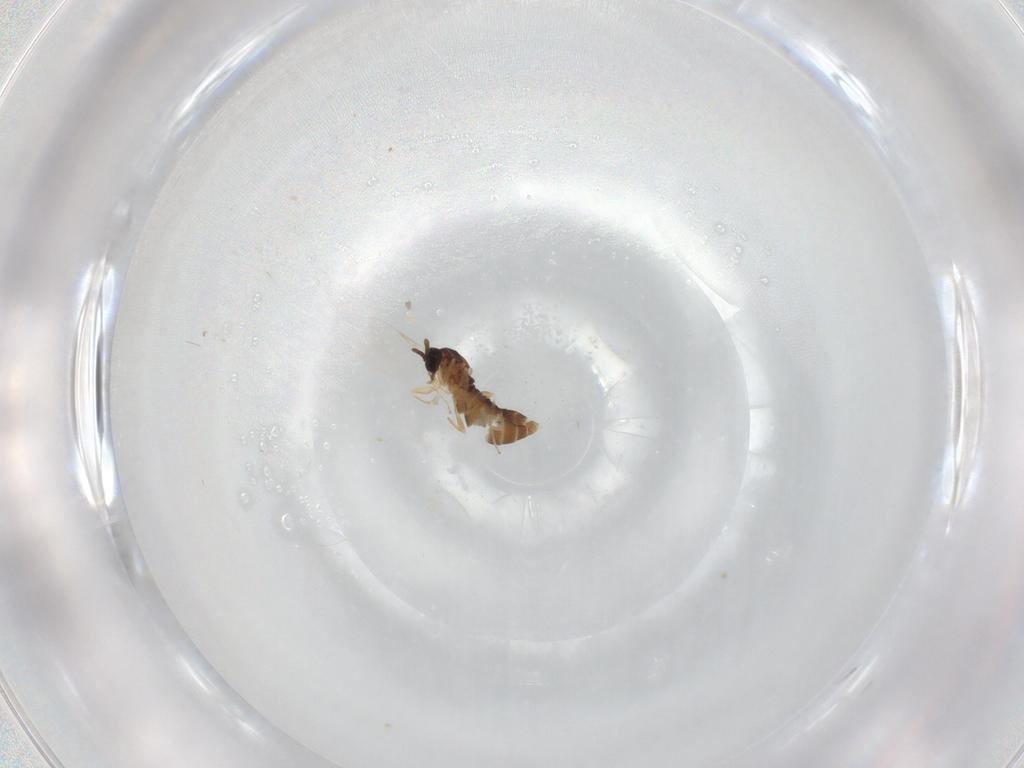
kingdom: Animalia
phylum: Arthropoda
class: Insecta
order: Diptera
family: Scatopsidae
